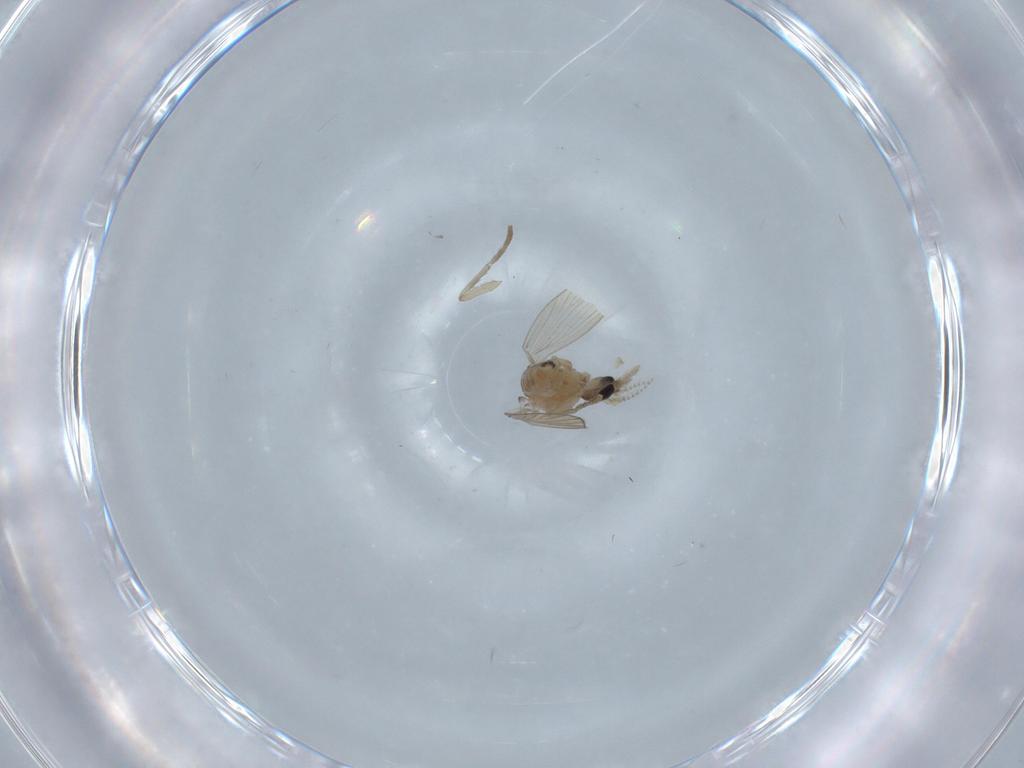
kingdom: Animalia
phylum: Arthropoda
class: Insecta
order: Diptera
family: Psychodidae
